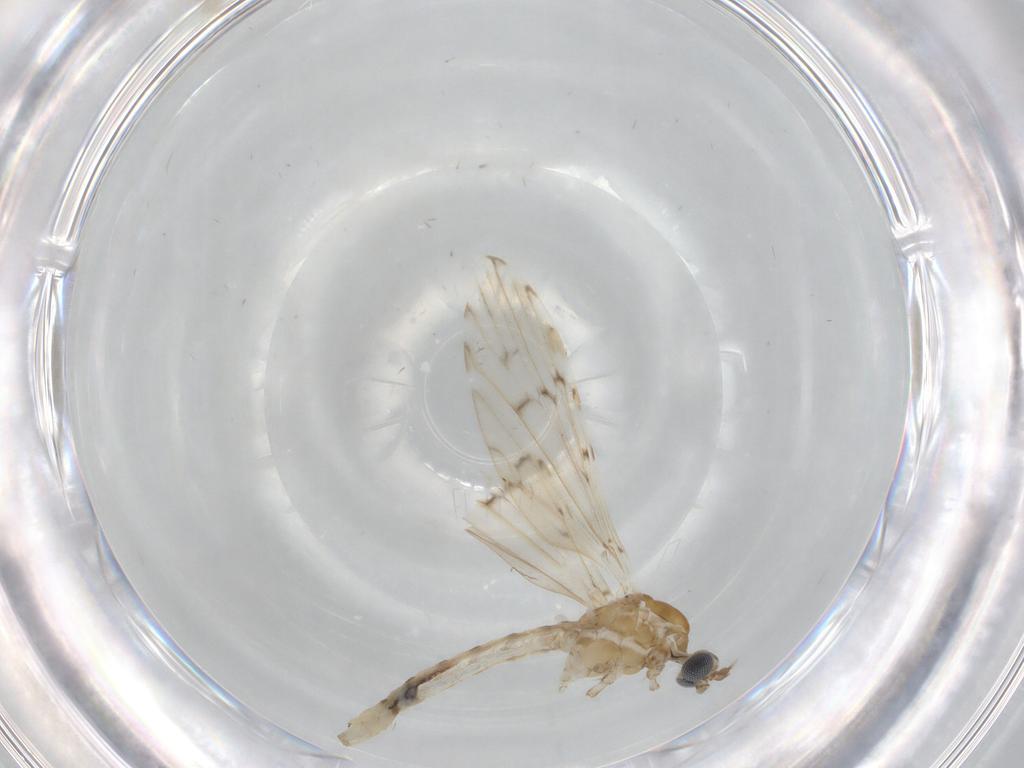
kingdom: Animalia
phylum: Arthropoda
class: Insecta
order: Diptera
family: Limoniidae
